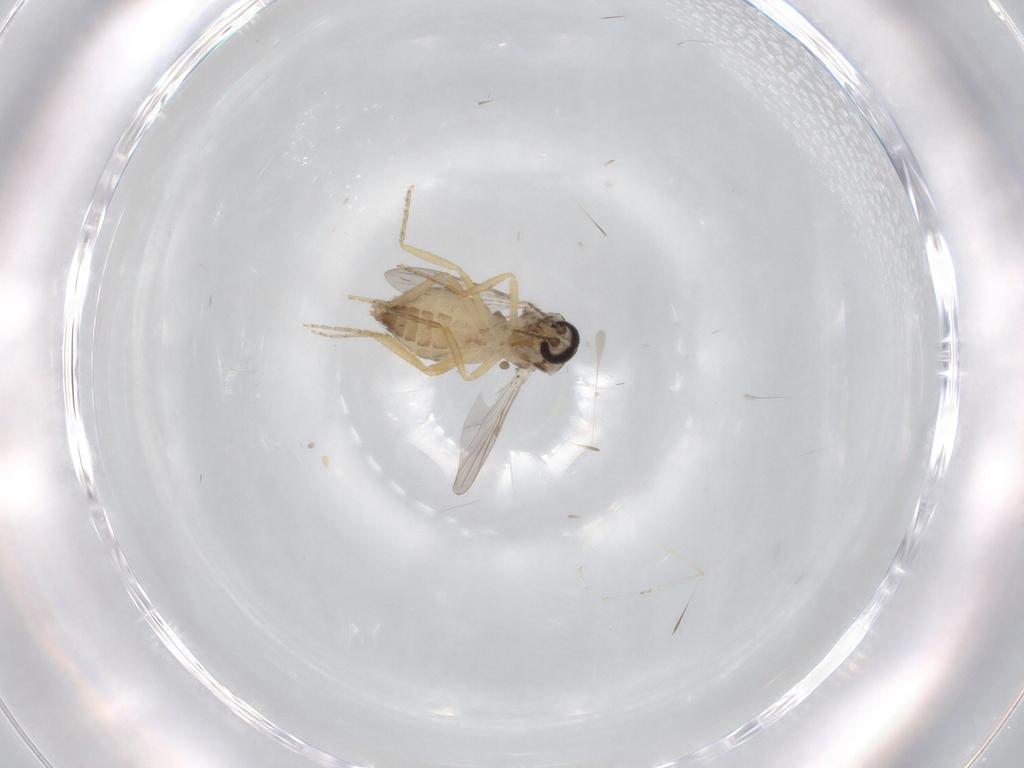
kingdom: Animalia
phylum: Arthropoda
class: Insecta
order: Diptera
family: Ceratopogonidae
